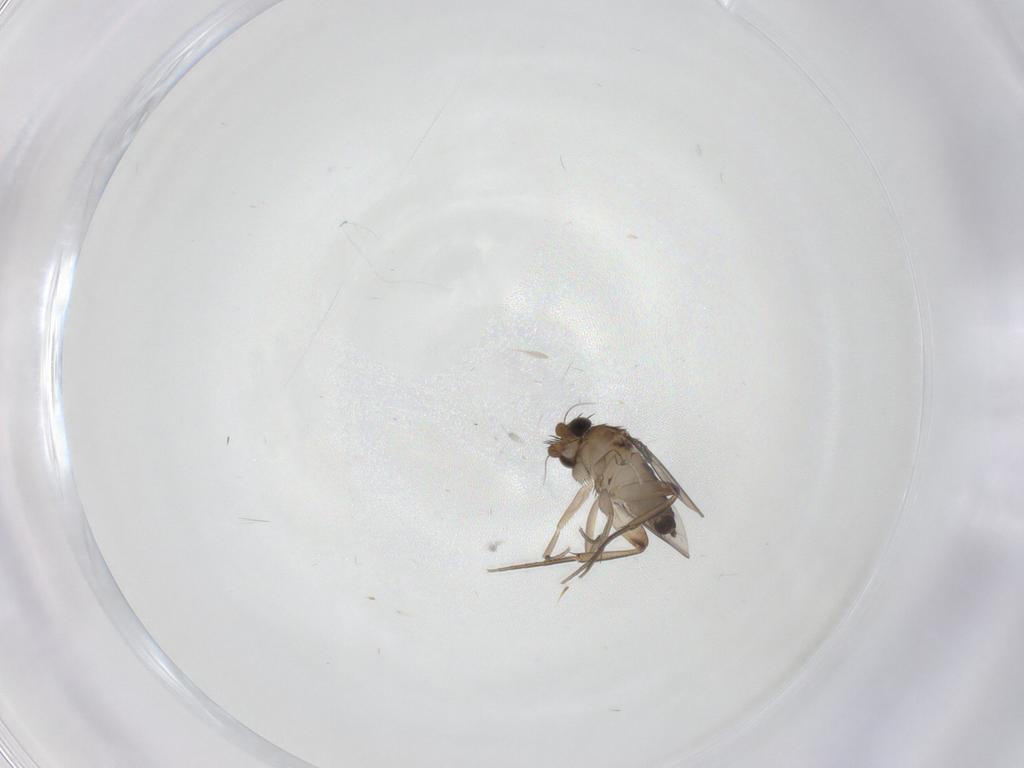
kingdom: Animalia
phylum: Arthropoda
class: Insecta
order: Diptera
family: Phoridae
